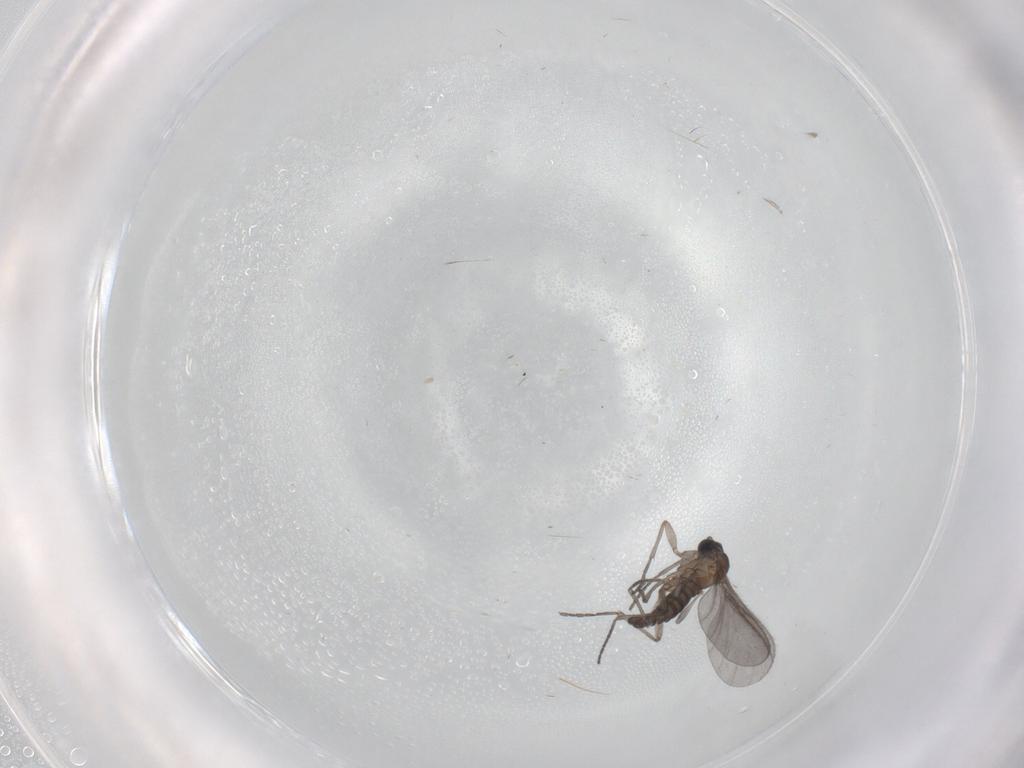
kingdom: Animalia
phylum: Arthropoda
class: Insecta
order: Diptera
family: Sciaridae
